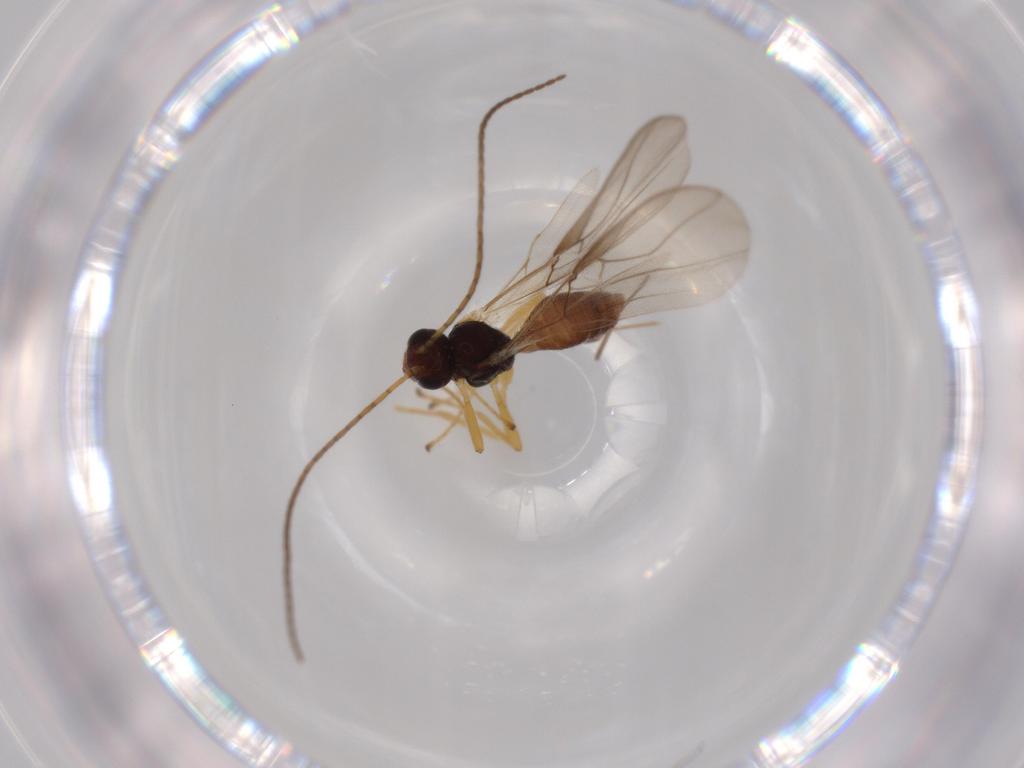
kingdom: Animalia
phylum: Arthropoda
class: Insecta
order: Hymenoptera
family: Braconidae
